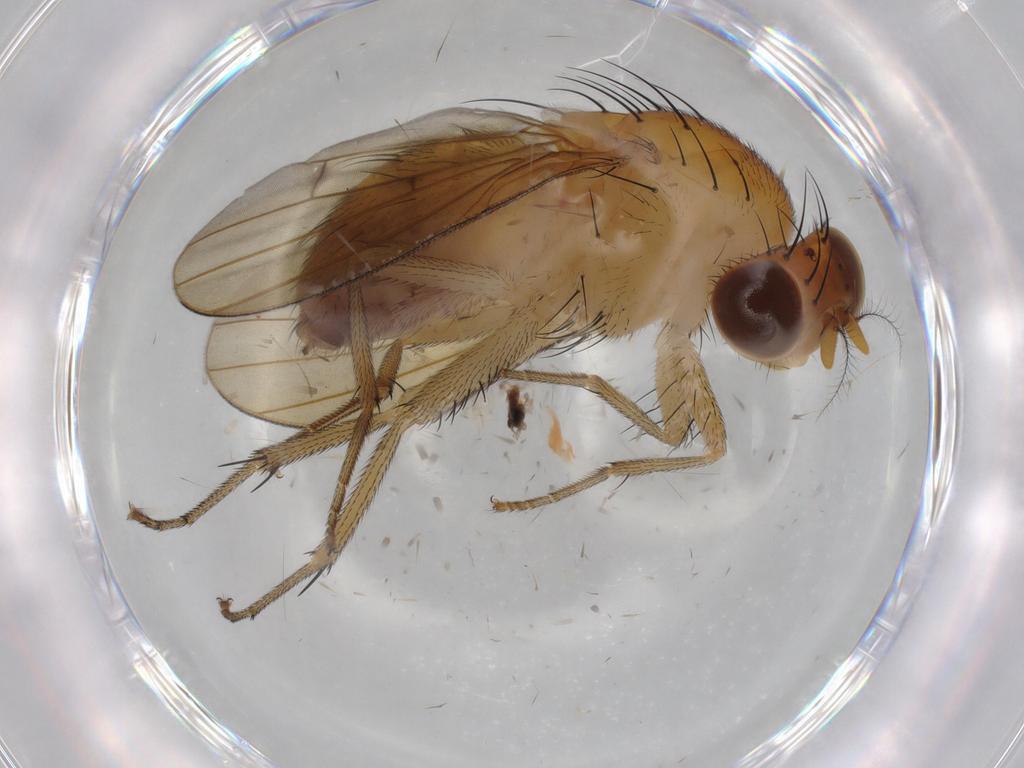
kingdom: Animalia
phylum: Arthropoda
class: Insecta
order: Diptera
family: Cecidomyiidae
